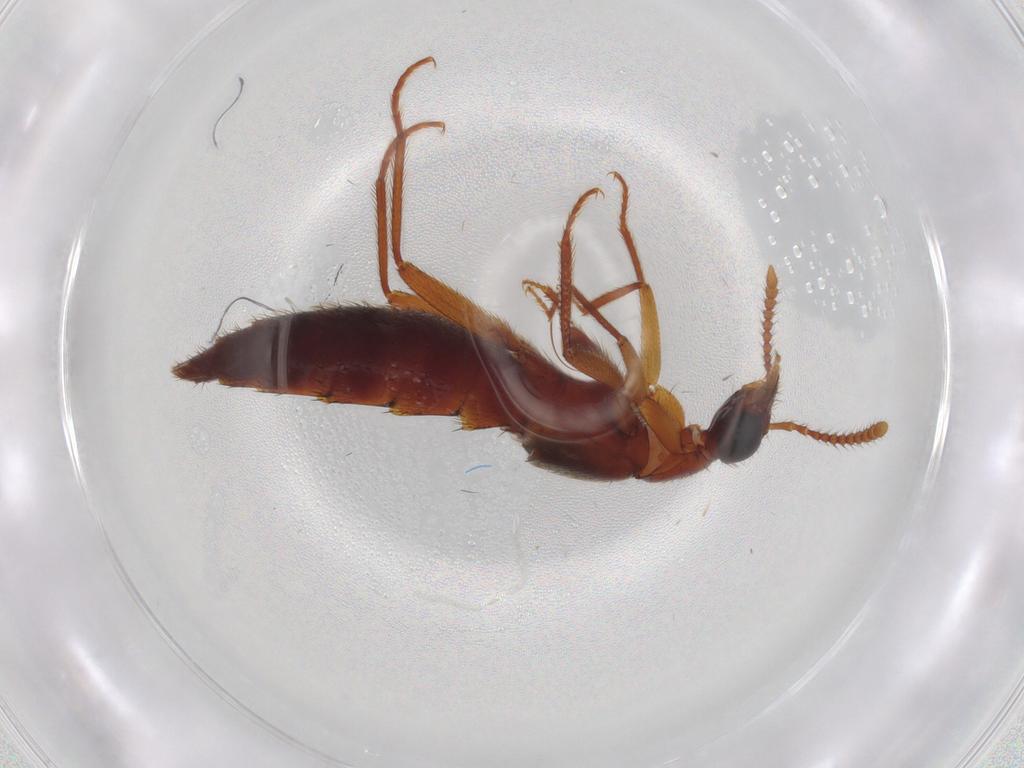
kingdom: Animalia
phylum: Arthropoda
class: Insecta
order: Coleoptera
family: Staphylinidae
